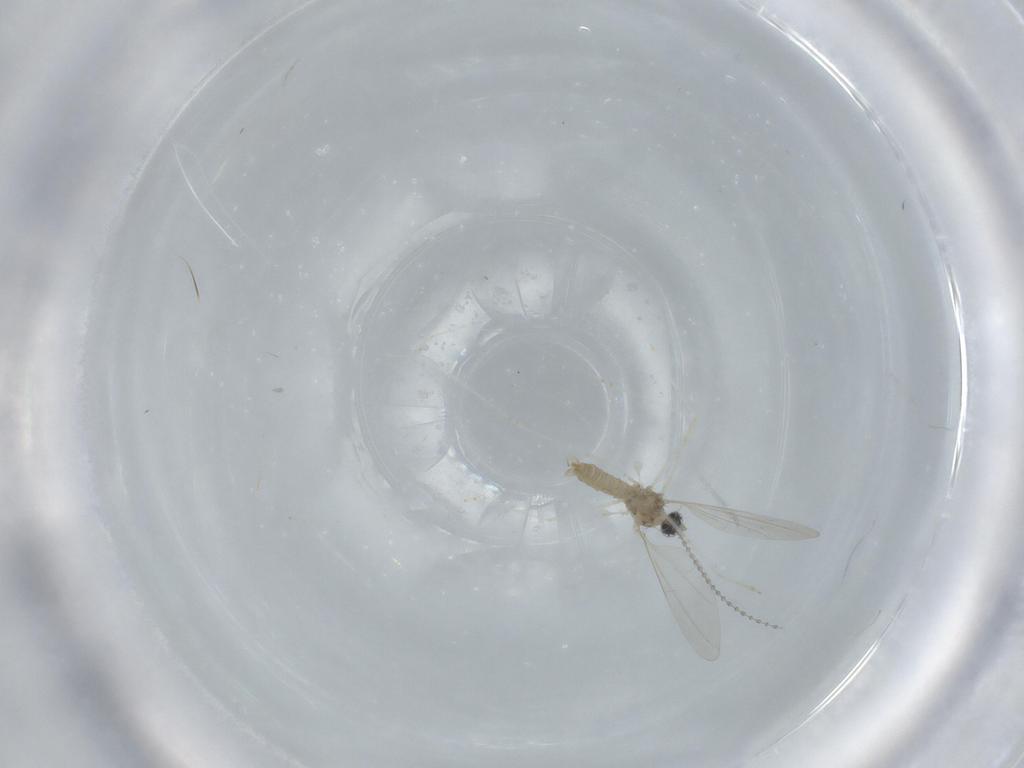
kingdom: Animalia
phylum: Arthropoda
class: Insecta
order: Diptera
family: Cecidomyiidae
